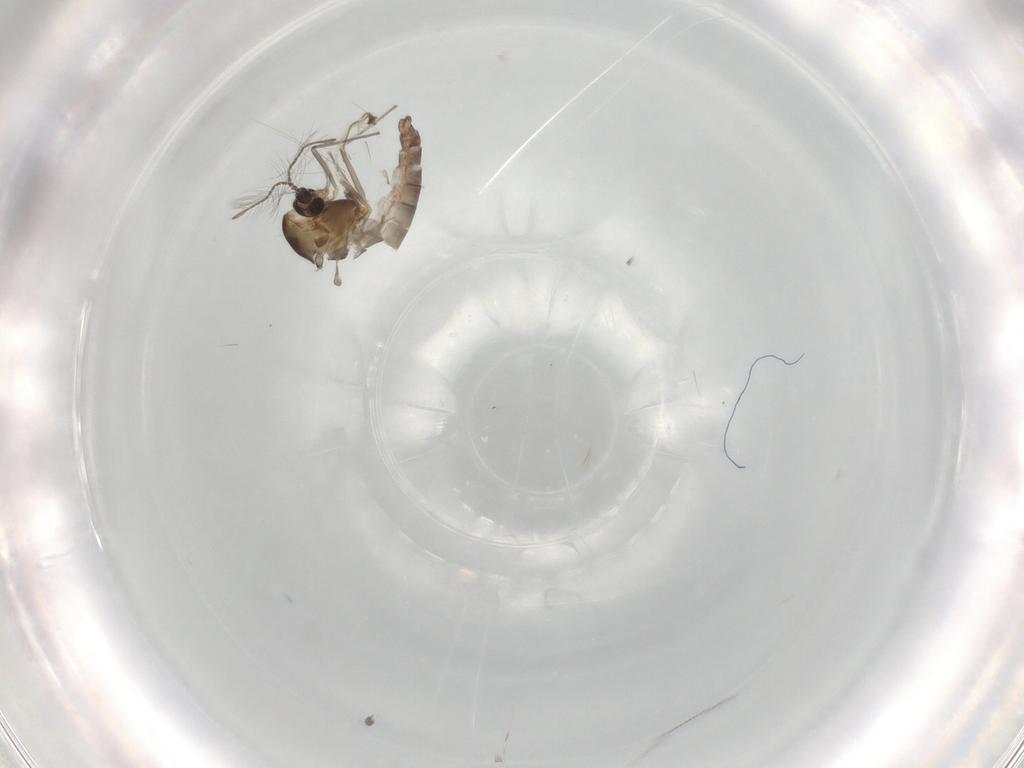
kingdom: Animalia
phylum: Arthropoda
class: Insecta
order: Diptera
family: Chironomidae
